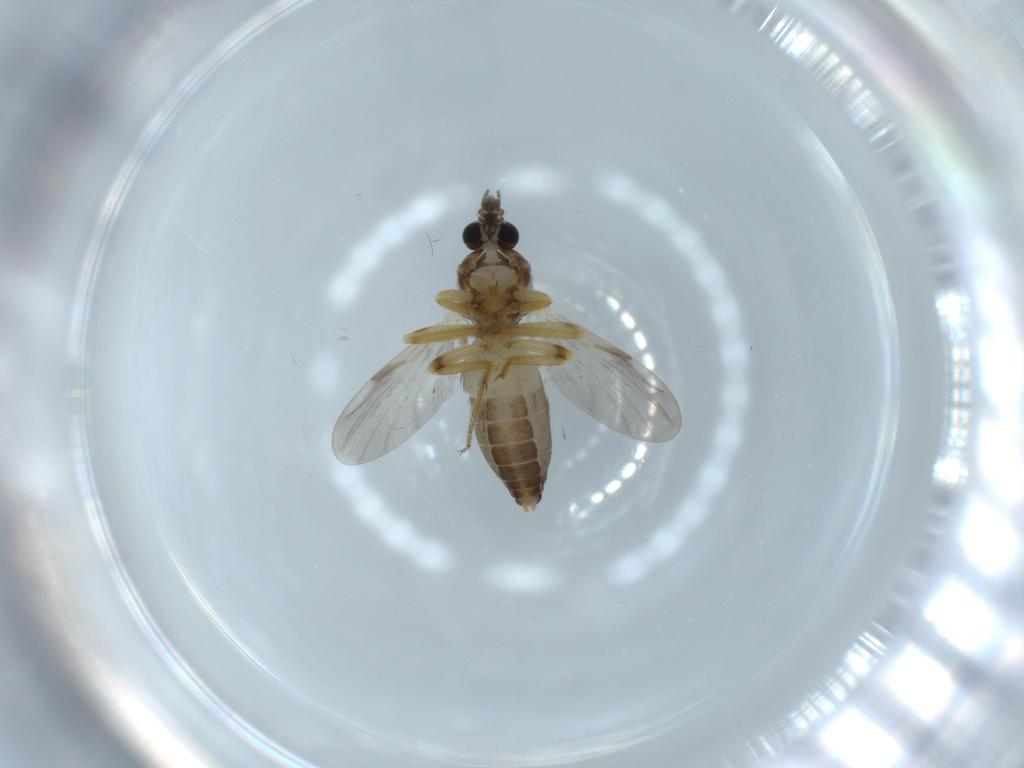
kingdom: Animalia
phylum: Arthropoda
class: Insecta
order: Diptera
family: Ceratopogonidae
